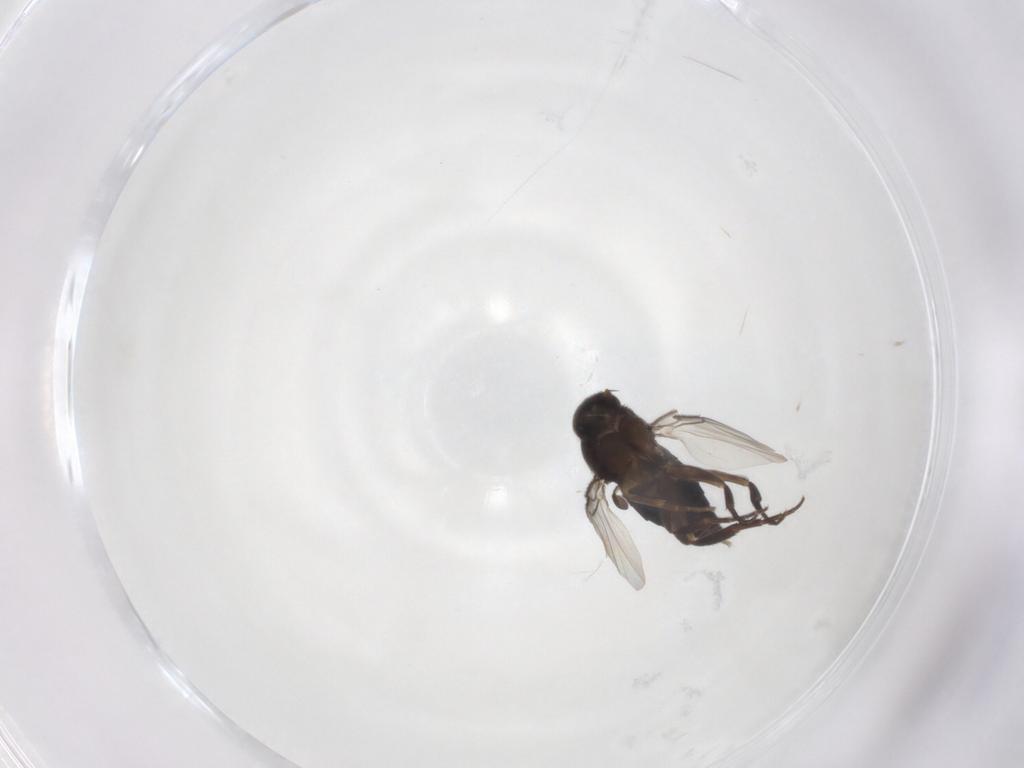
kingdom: Animalia
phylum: Arthropoda
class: Insecta
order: Diptera
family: Phoridae
